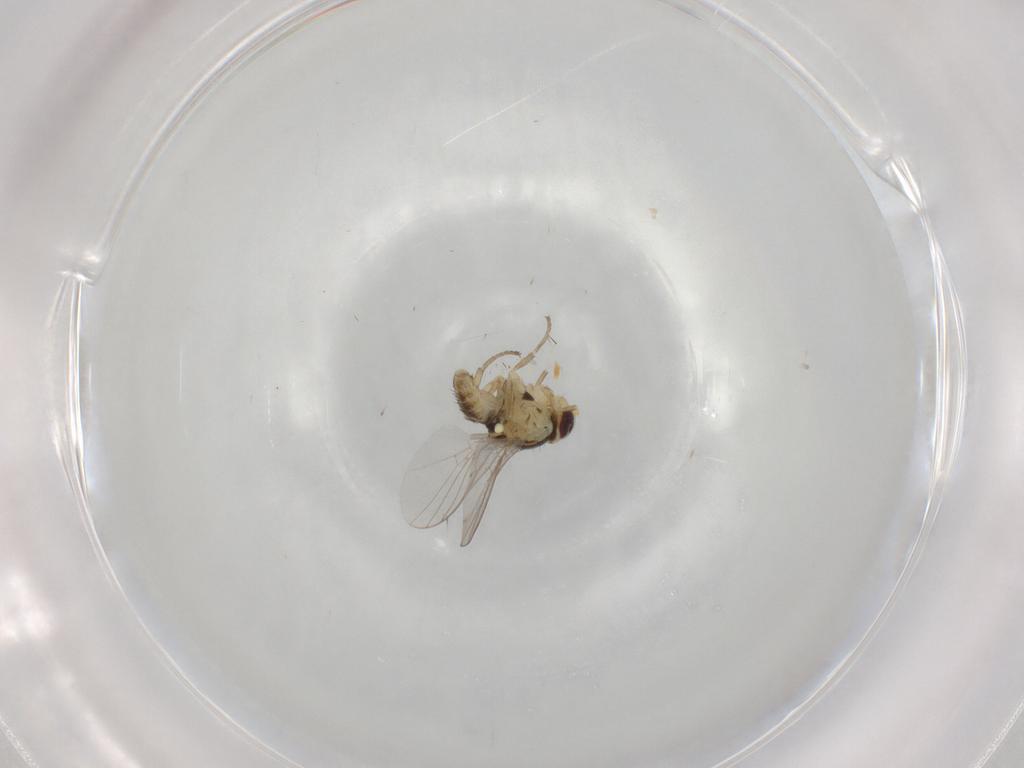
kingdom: Animalia
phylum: Arthropoda
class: Insecta
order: Diptera
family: Agromyzidae
